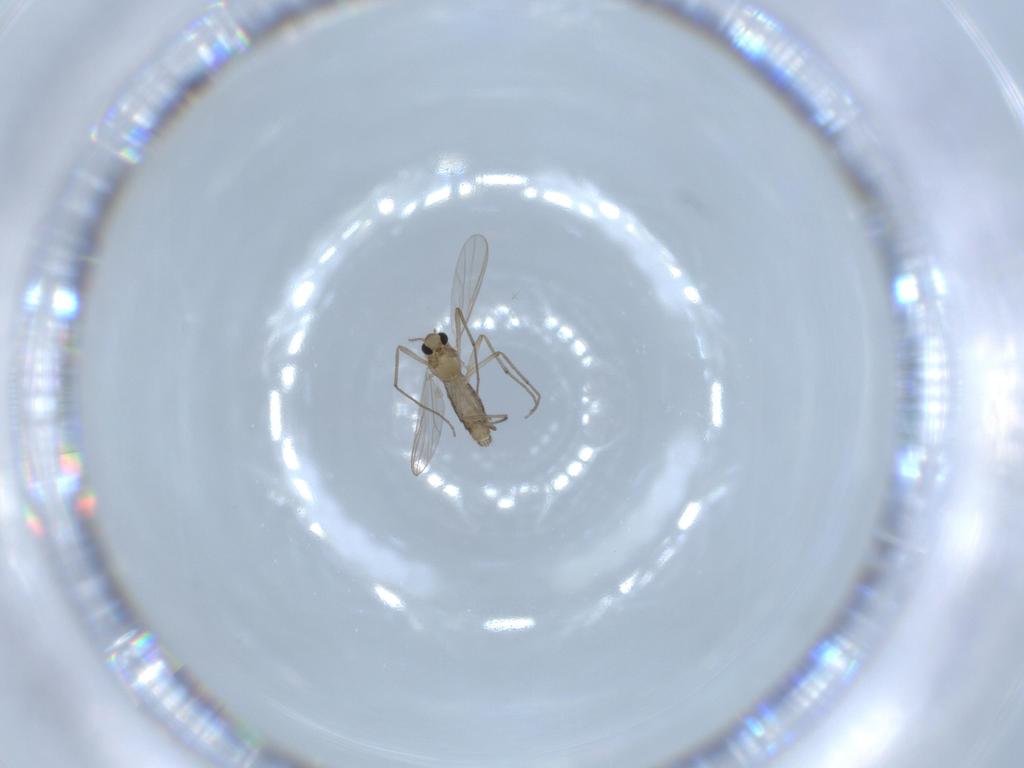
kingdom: Animalia
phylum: Arthropoda
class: Insecta
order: Diptera
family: Chironomidae
